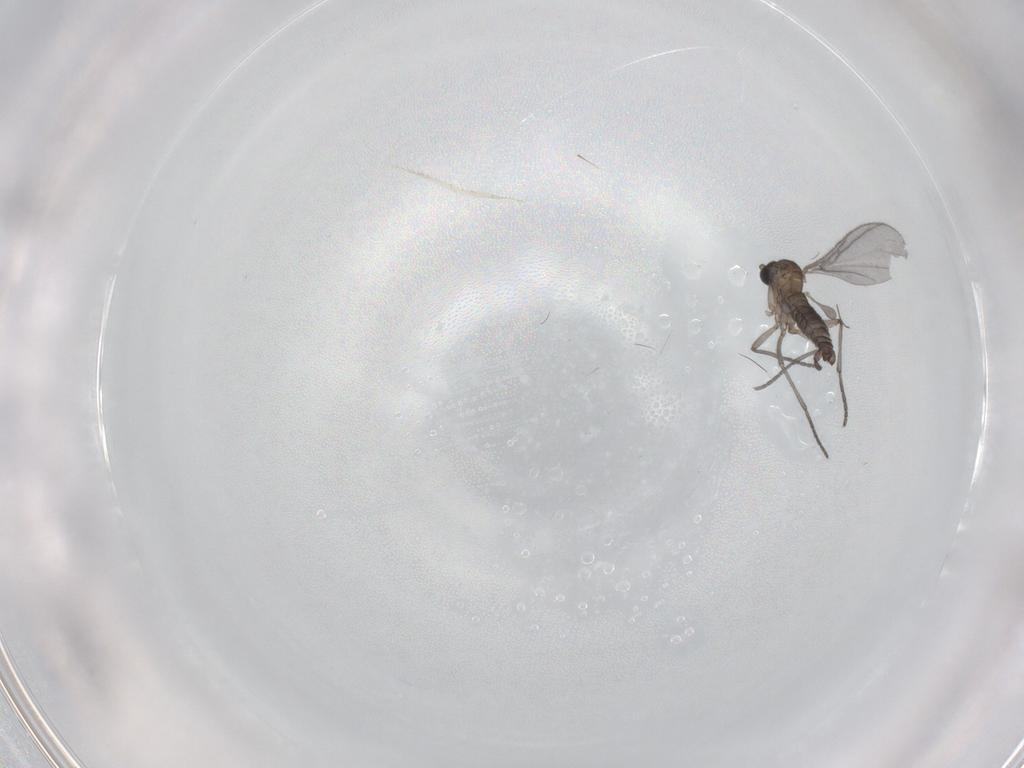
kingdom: Animalia
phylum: Arthropoda
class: Insecta
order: Diptera
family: Sciaridae
